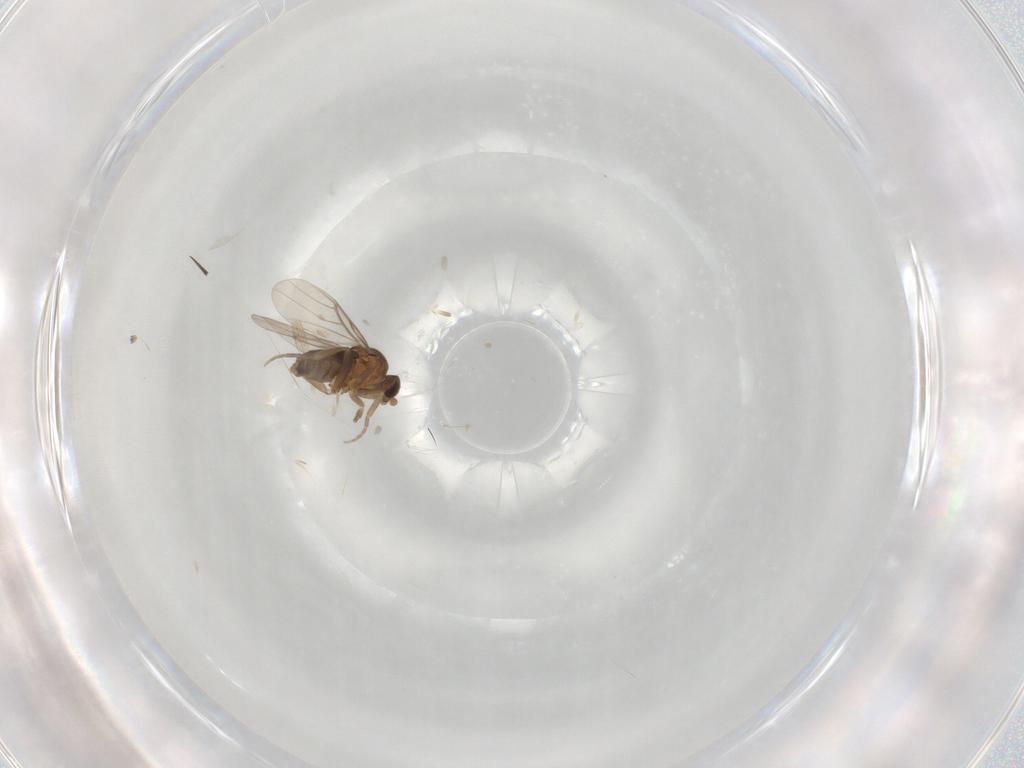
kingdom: Animalia
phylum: Arthropoda
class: Insecta
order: Diptera
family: Phoridae
